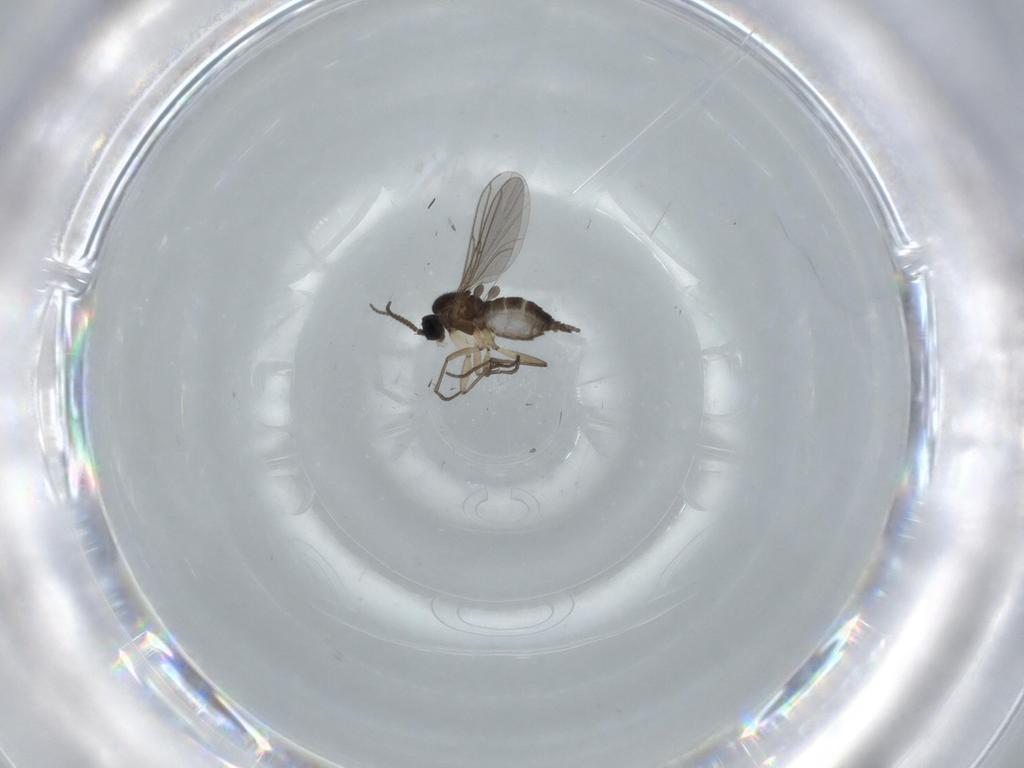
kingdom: Animalia
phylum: Arthropoda
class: Insecta
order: Diptera
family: Sciaridae
